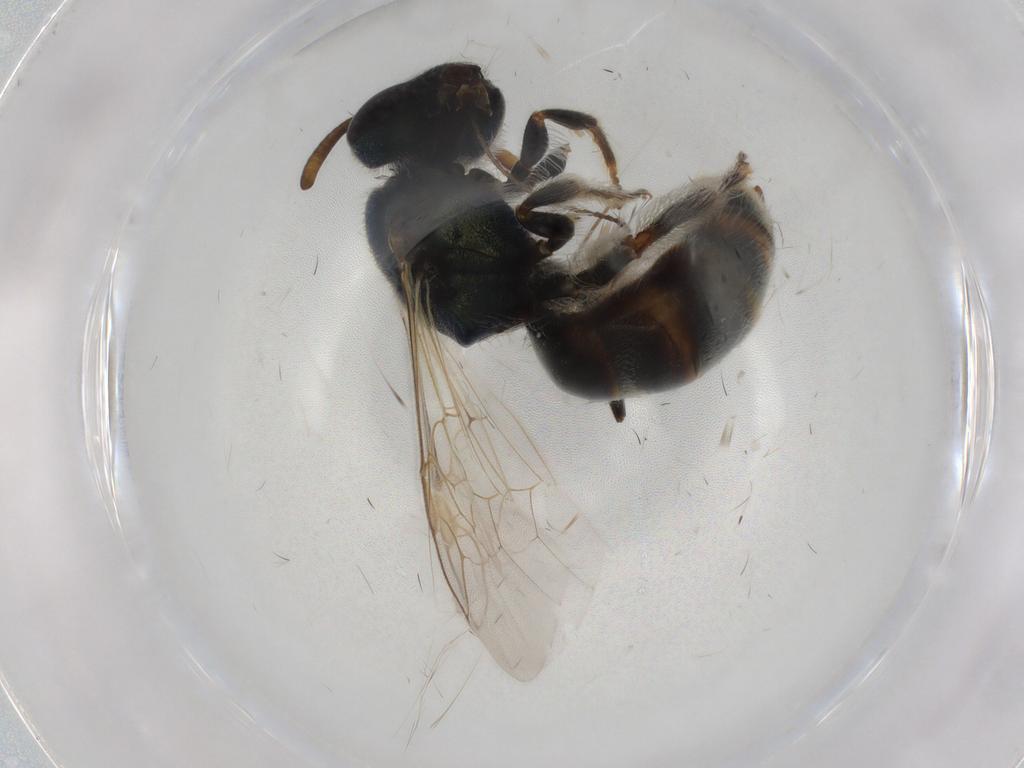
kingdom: Animalia
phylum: Arthropoda
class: Insecta
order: Hymenoptera
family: Halictidae
